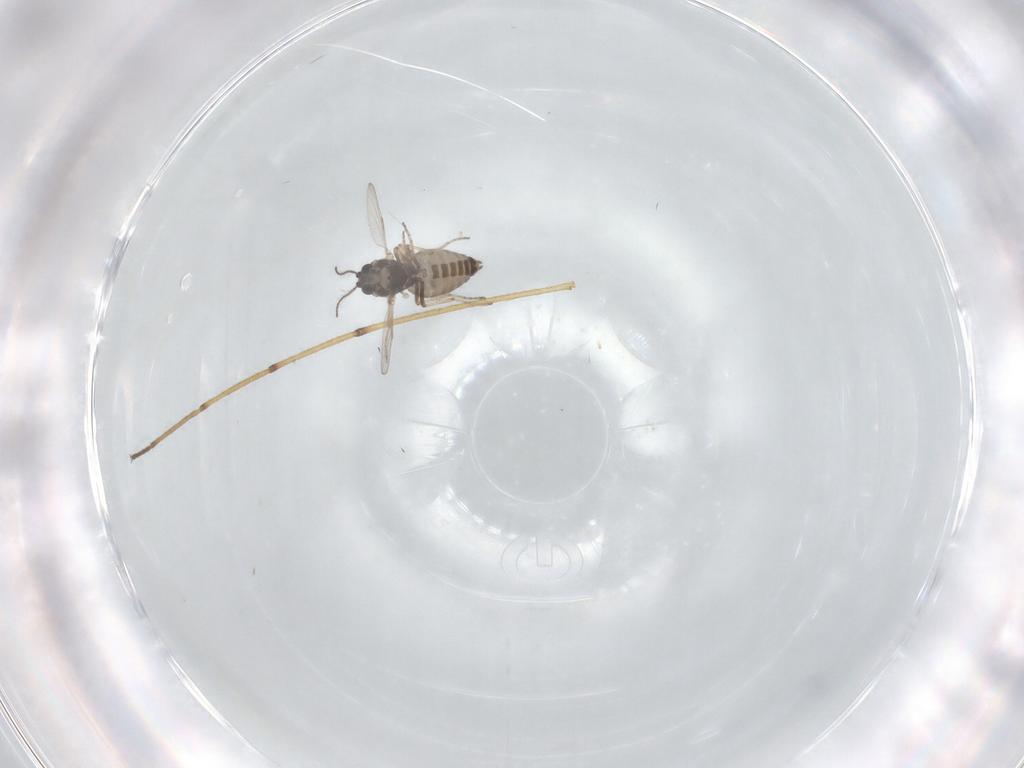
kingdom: Animalia
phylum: Arthropoda
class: Insecta
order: Diptera
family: Ceratopogonidae
